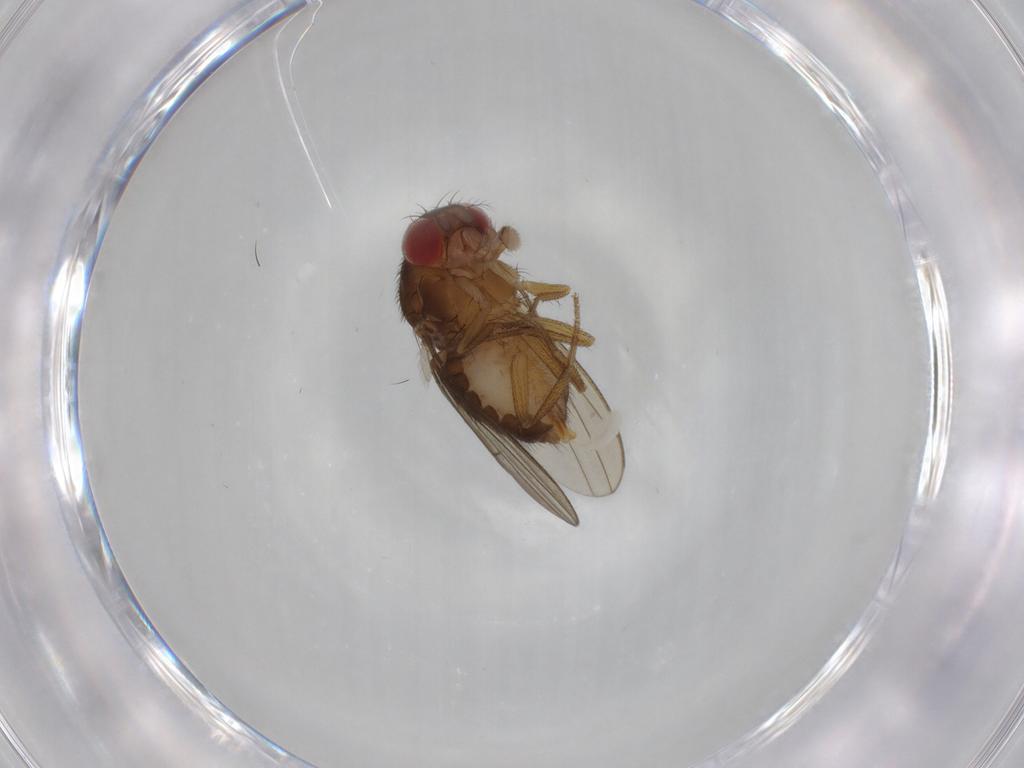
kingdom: Animalia
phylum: Arthropoda
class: Insecta
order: Diptera
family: Drosophilidae
